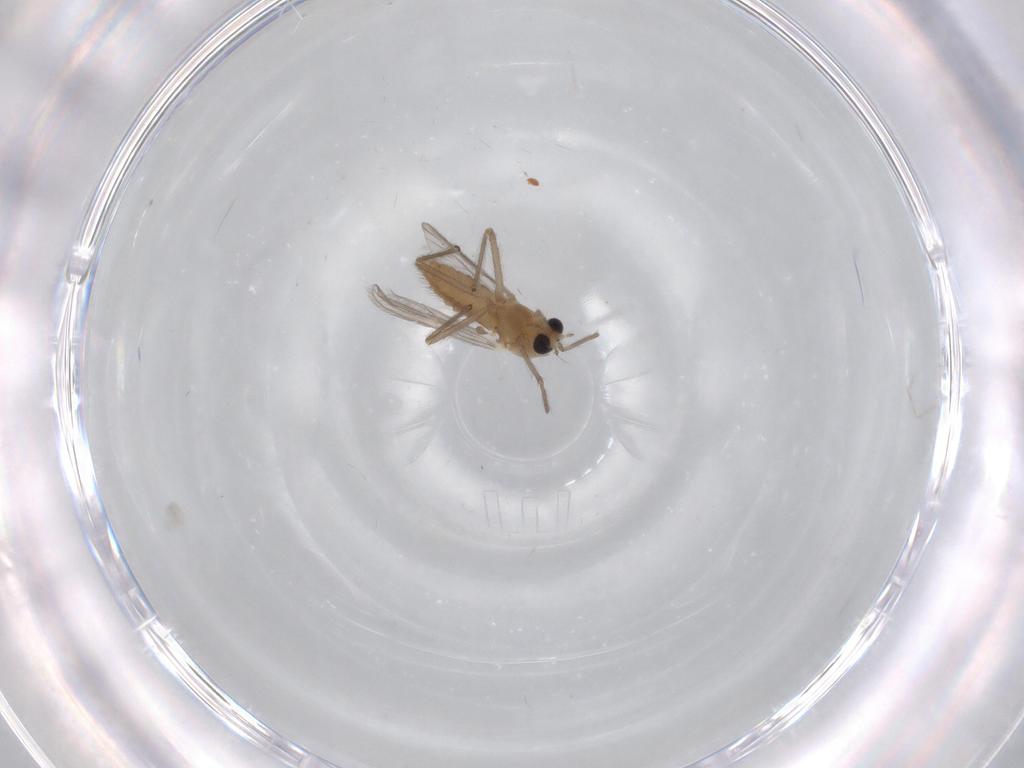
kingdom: Animalia
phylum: Arthropoda
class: Insecta
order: Diptera
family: Chironomidae
